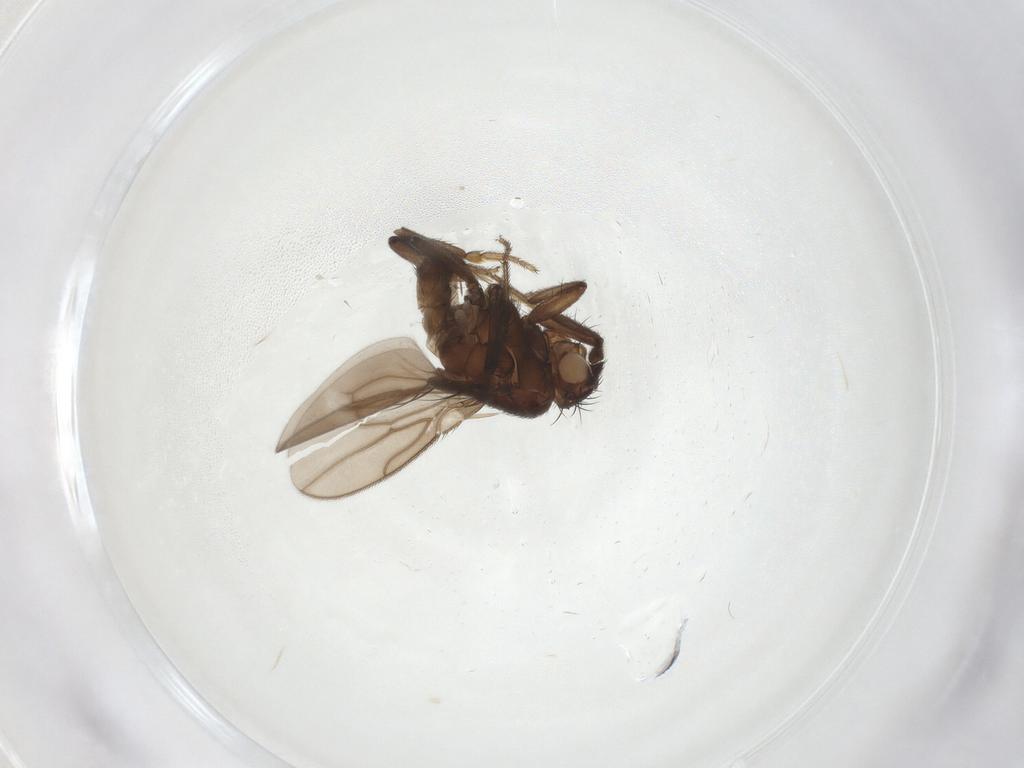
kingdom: Animalia
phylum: Arthropoda
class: Insecta
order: Diptera
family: Sphaeroceridae
